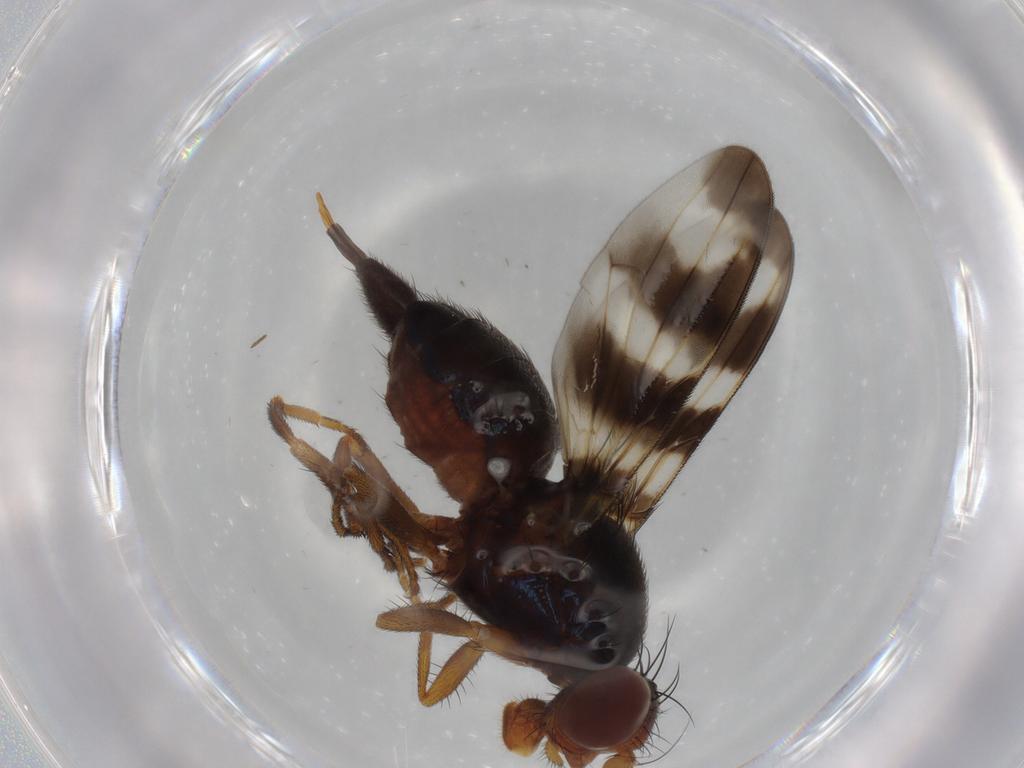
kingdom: Animalia
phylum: Arthropoda
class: Insecta
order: Diptera
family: Ulidiidae
